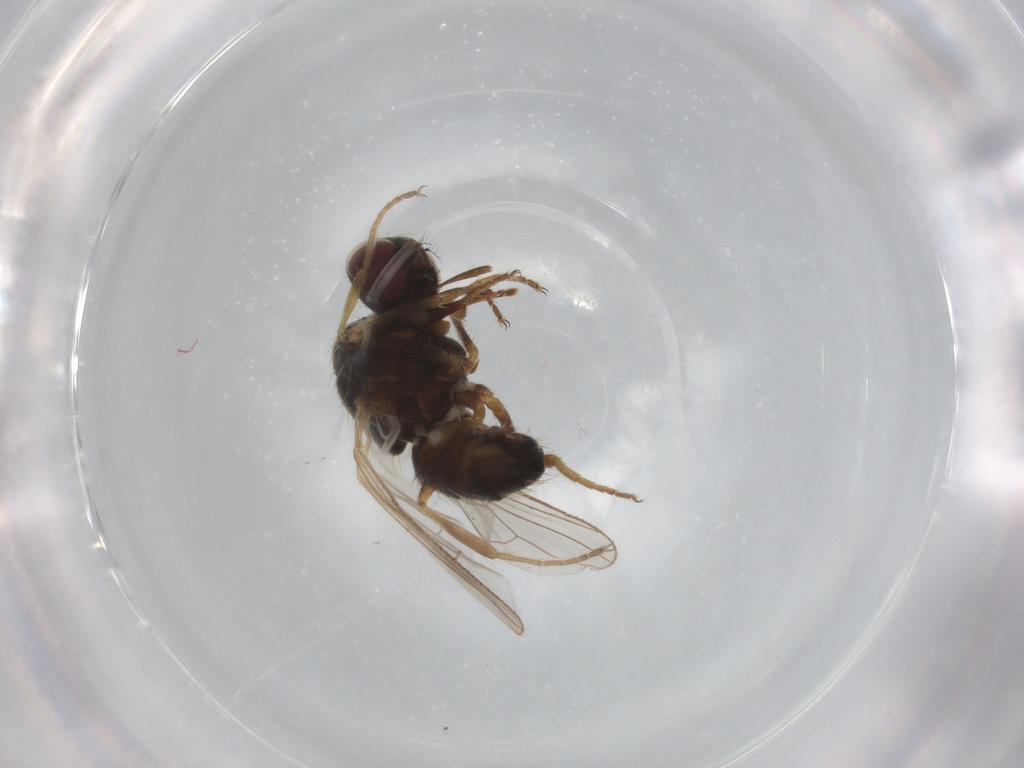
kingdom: Animalia
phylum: Arthropoda
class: Insecta
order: Diptera
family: Muscidae
